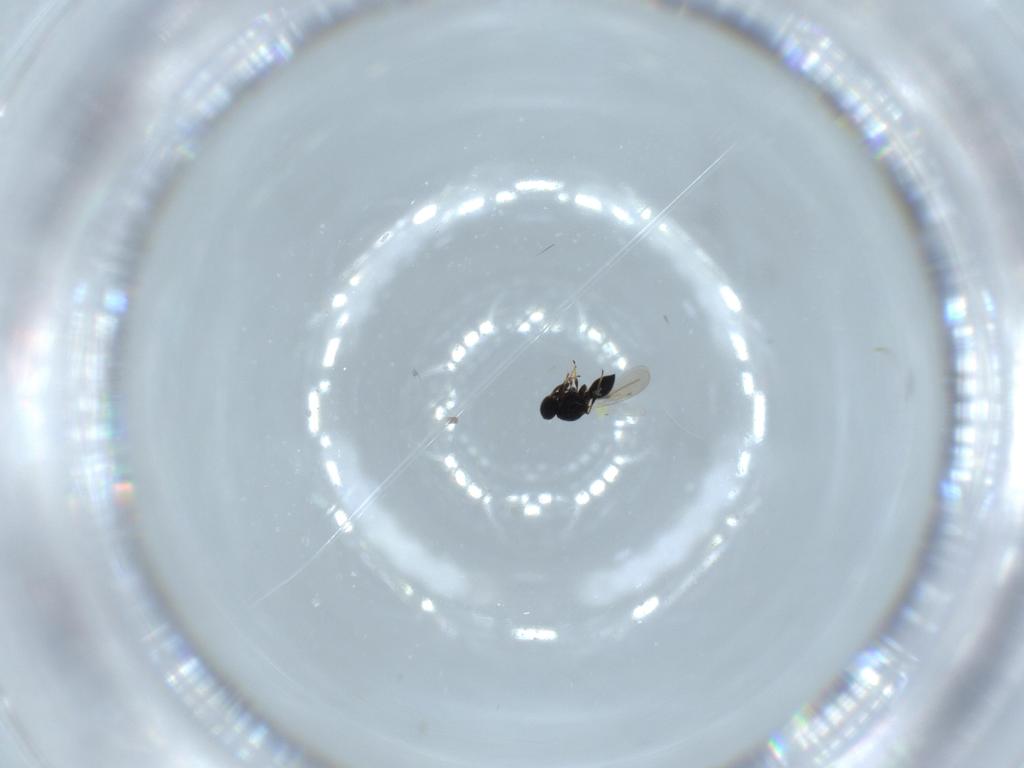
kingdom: Animalia
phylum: Arthropoda
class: Insecta
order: Hymenoptera
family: Platygastridae
